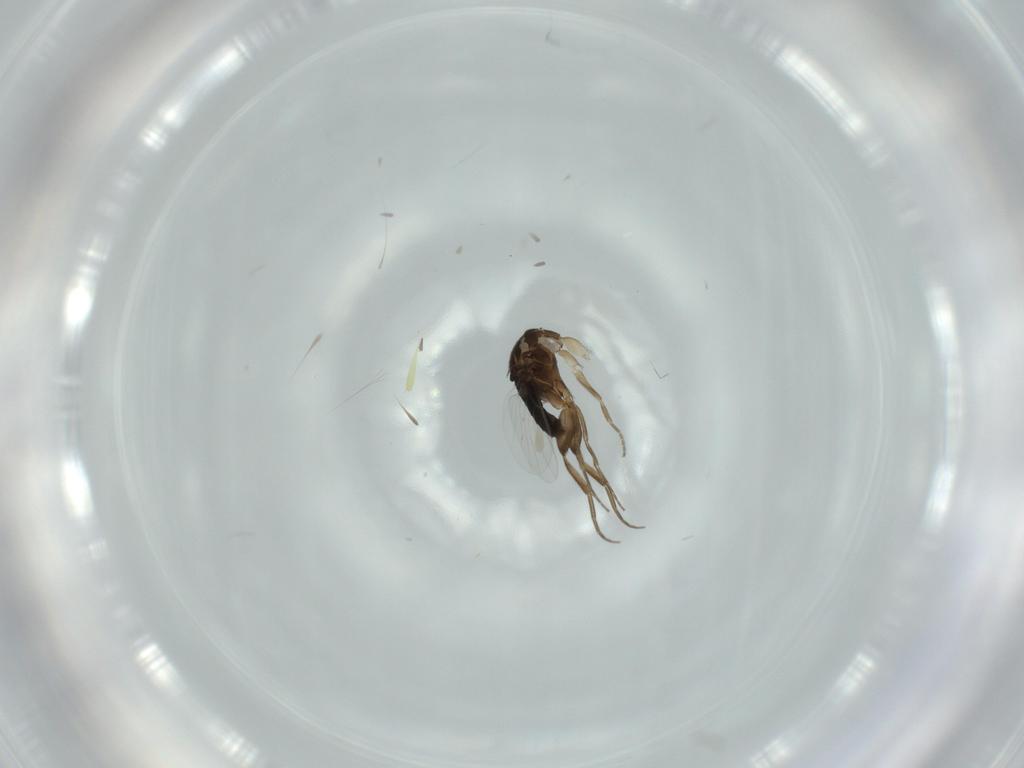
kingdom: Animalia
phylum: Arthropoda
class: Insecta
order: Diptera
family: Phoridae
